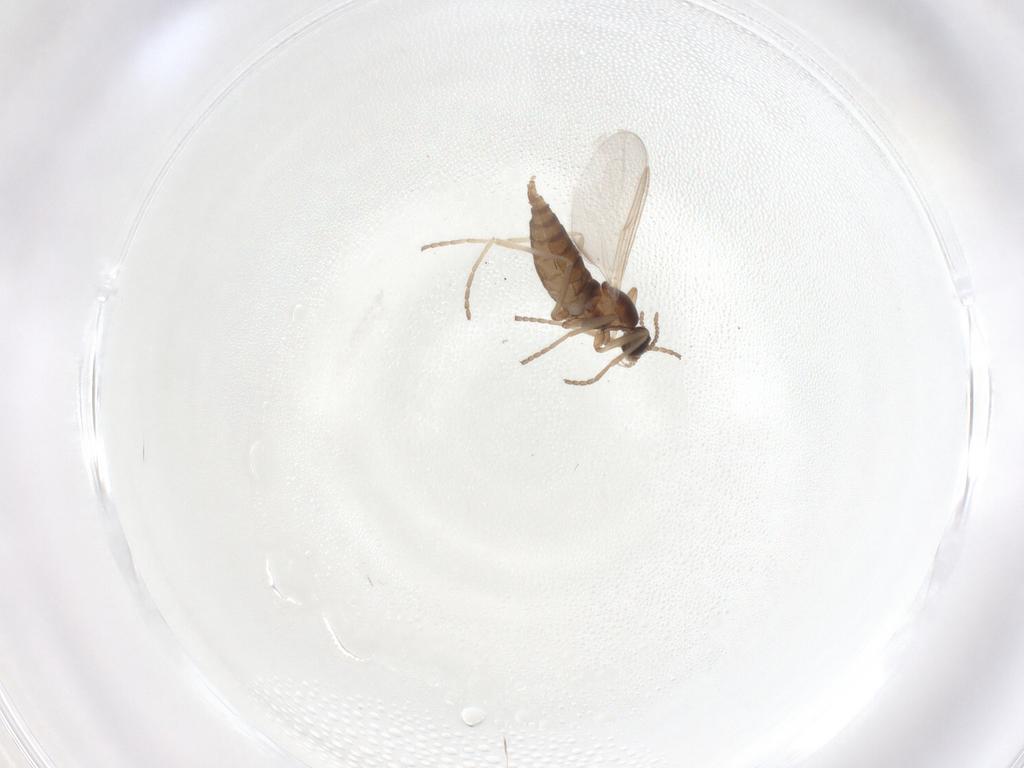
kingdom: Animalia
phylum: Arthropoda
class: Insecta
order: Diptera
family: Cecidomyiidae
